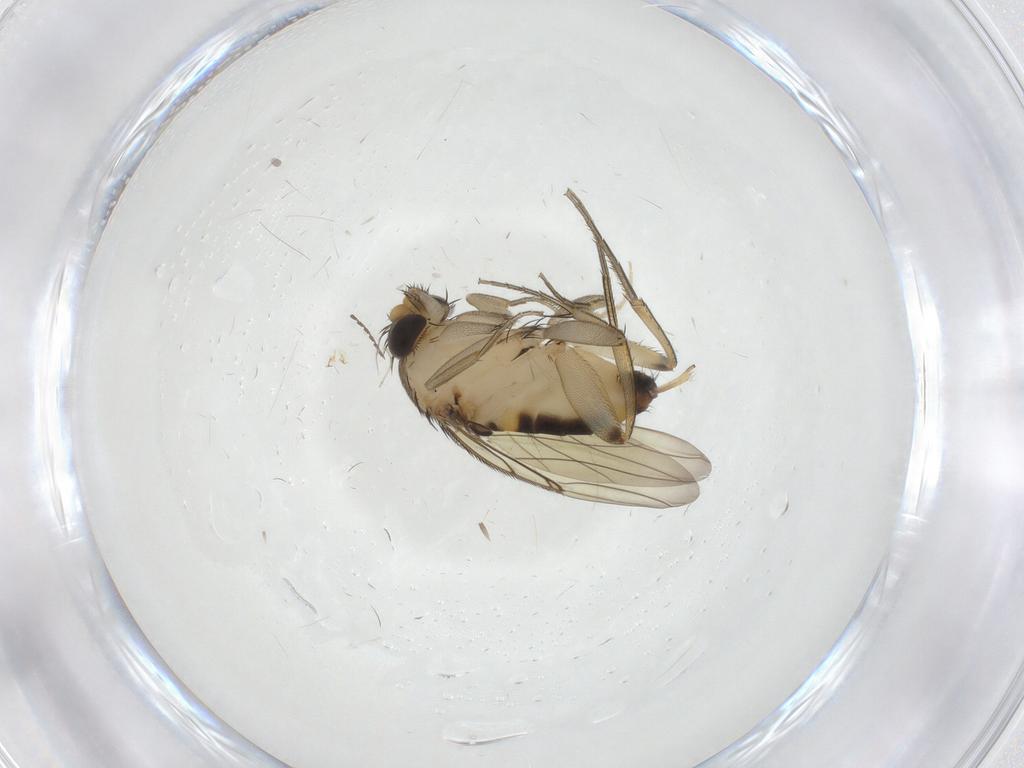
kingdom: Animalia
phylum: Arthropoda
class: Insecta
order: Diptera
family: Phoridae
